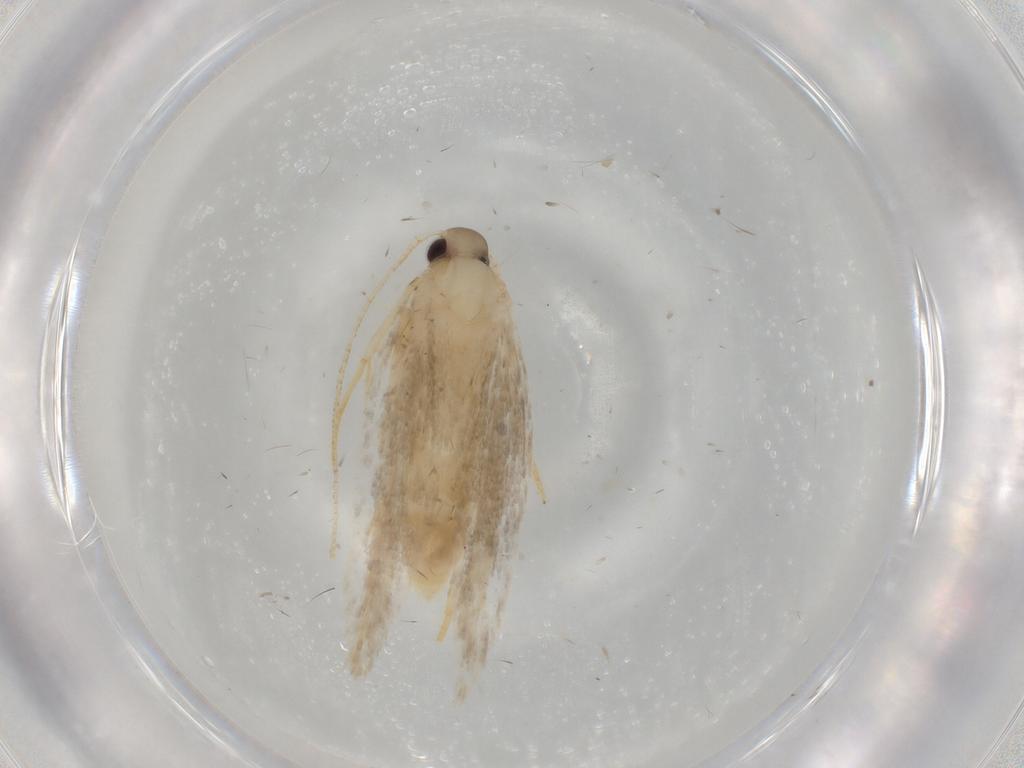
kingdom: Animalia
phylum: Arthropoda
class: Insecta
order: Lepidoptera
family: Gelechiidae
